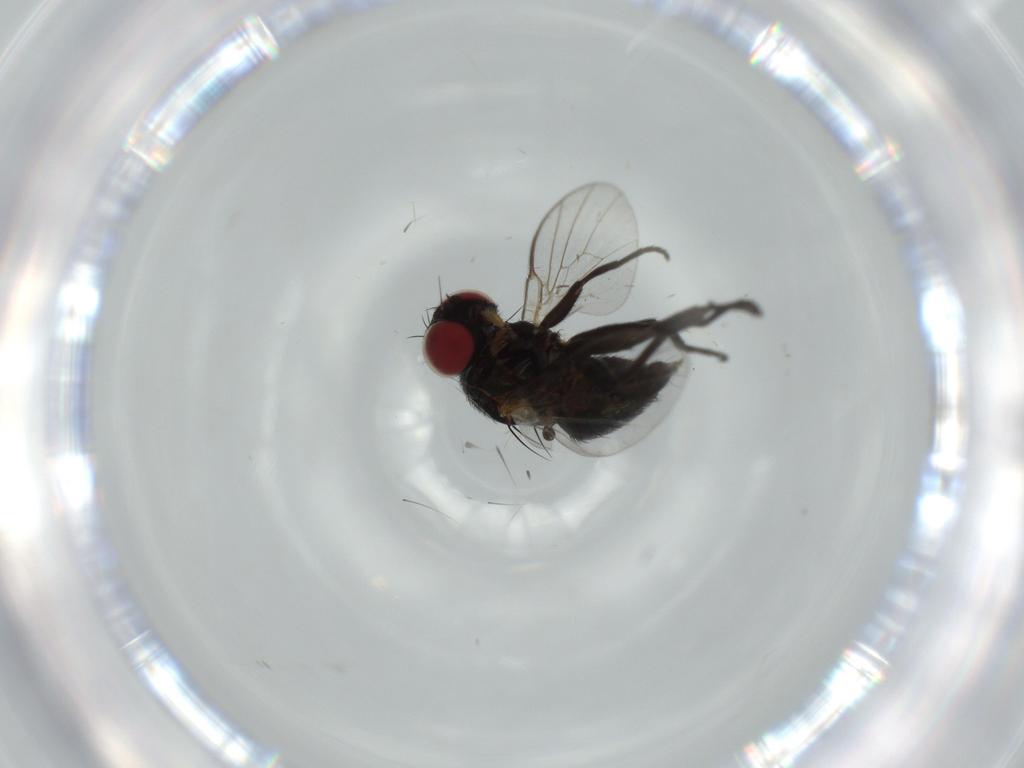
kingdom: Animalia
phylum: Arthropoda
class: Insecta
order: Diptera
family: Agromyzidae
